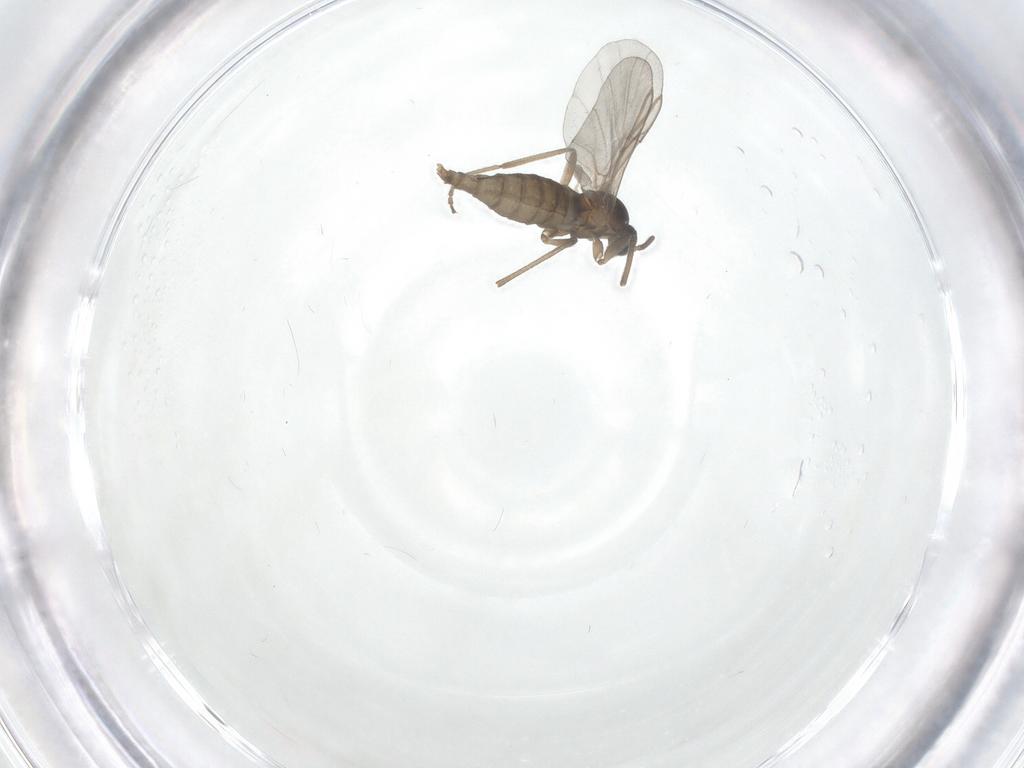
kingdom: Animalia
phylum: Arthropoda
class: Insecta
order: Diptera
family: Cecidomyiidae
